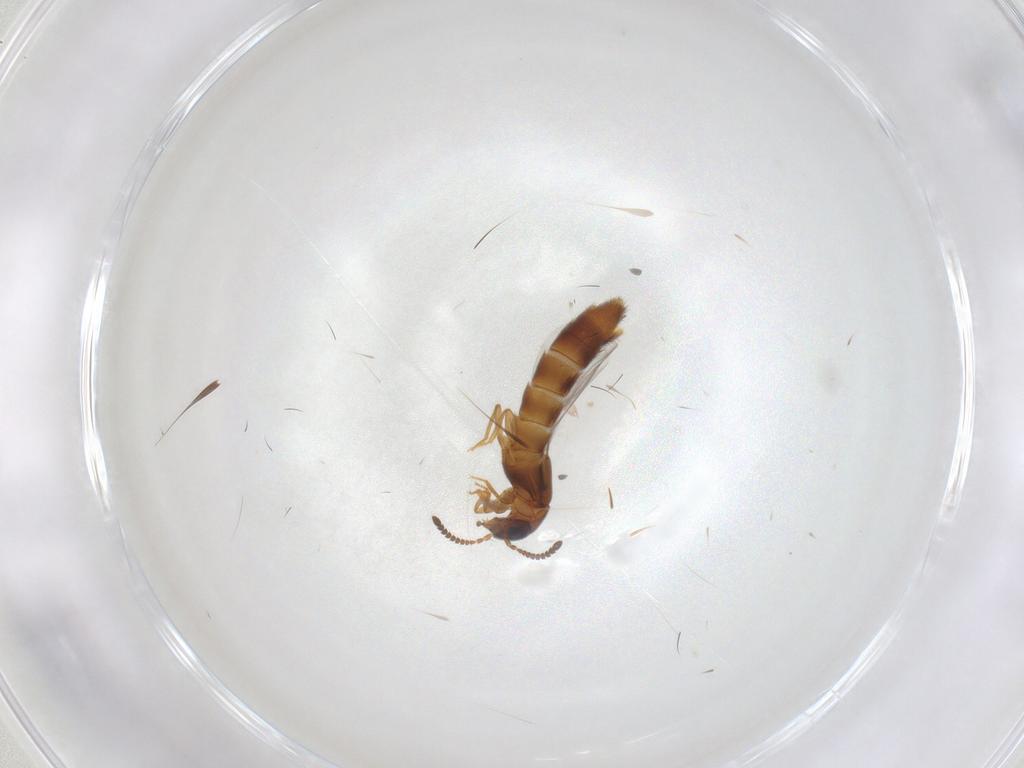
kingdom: Animalia
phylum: Arthropoda
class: Insecta
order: Coleoptera
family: Staphylinidae
